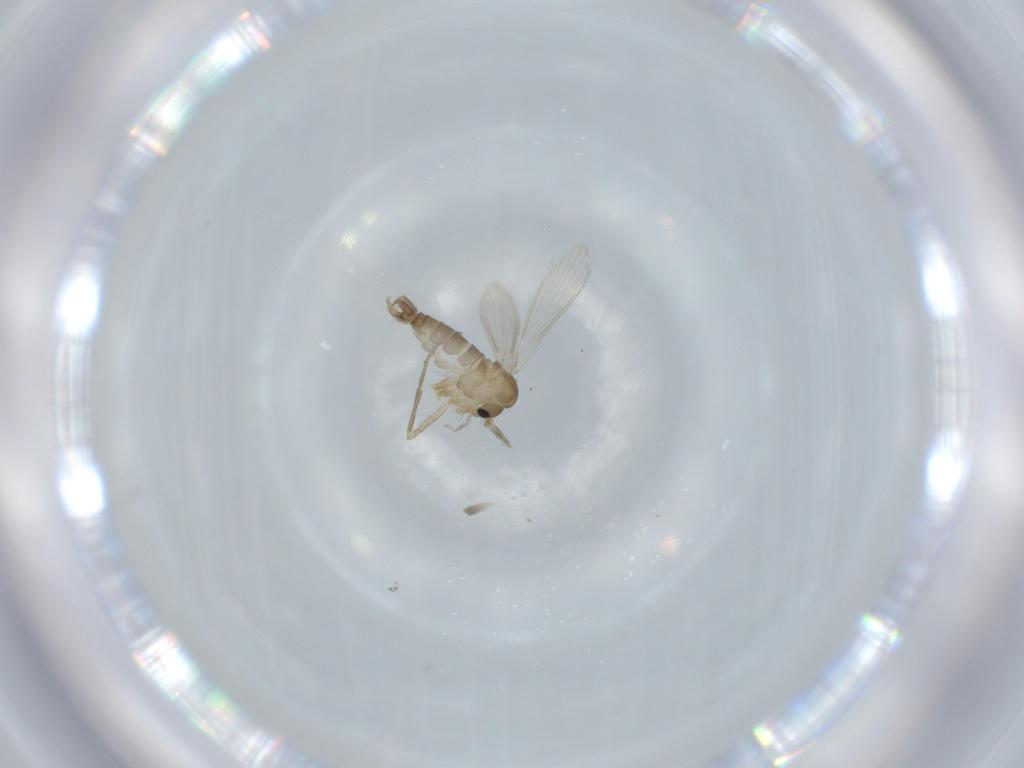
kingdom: Animalia
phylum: Arthropoda
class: Insecta
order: Diptera
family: Psychodidae
